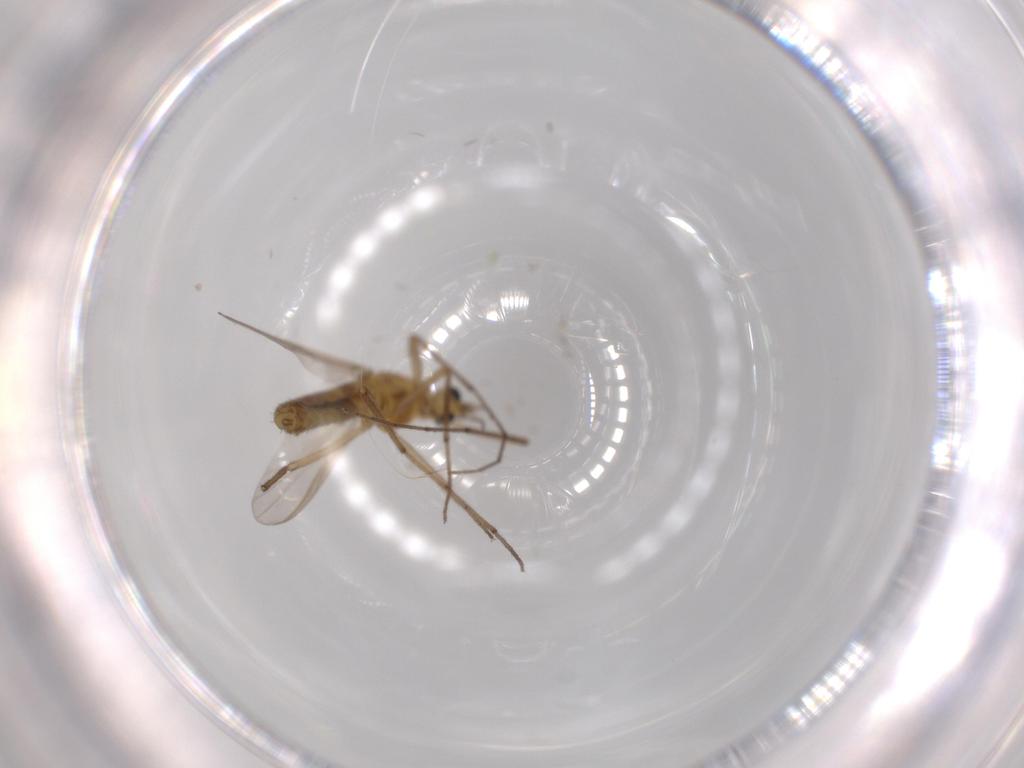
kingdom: Animalia
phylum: Arthropoda
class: Insecta
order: Diptera
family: Chironomidae
